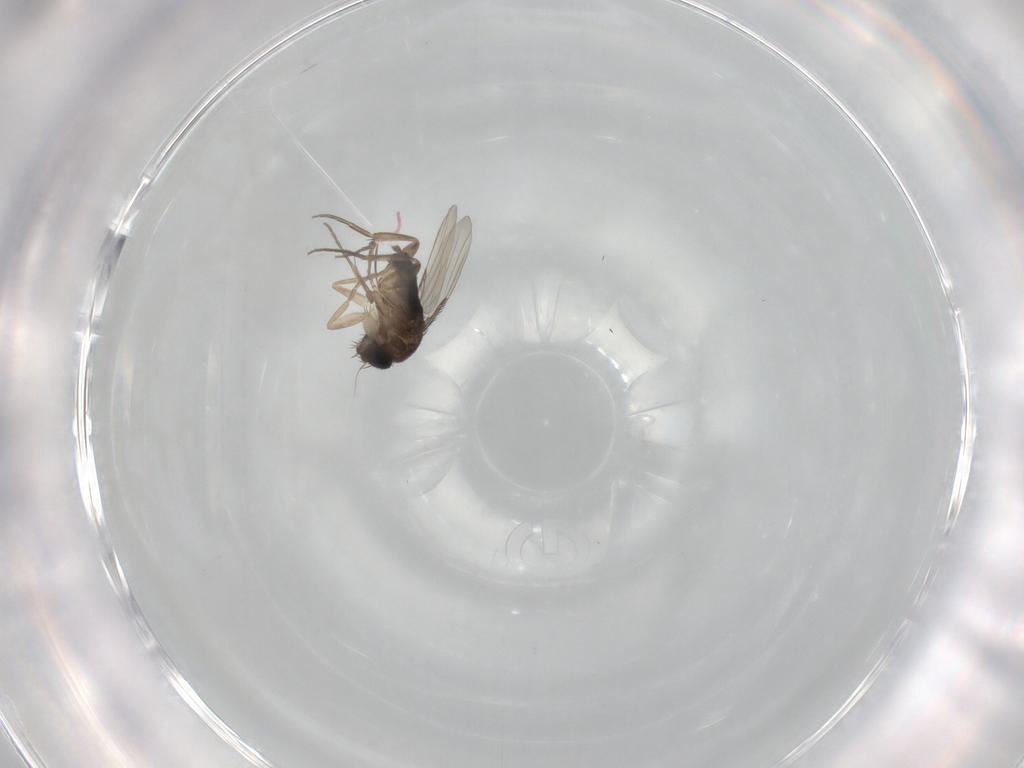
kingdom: Animalia
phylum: Arthropoda
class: Insecta
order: Diptera
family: Phoridae
